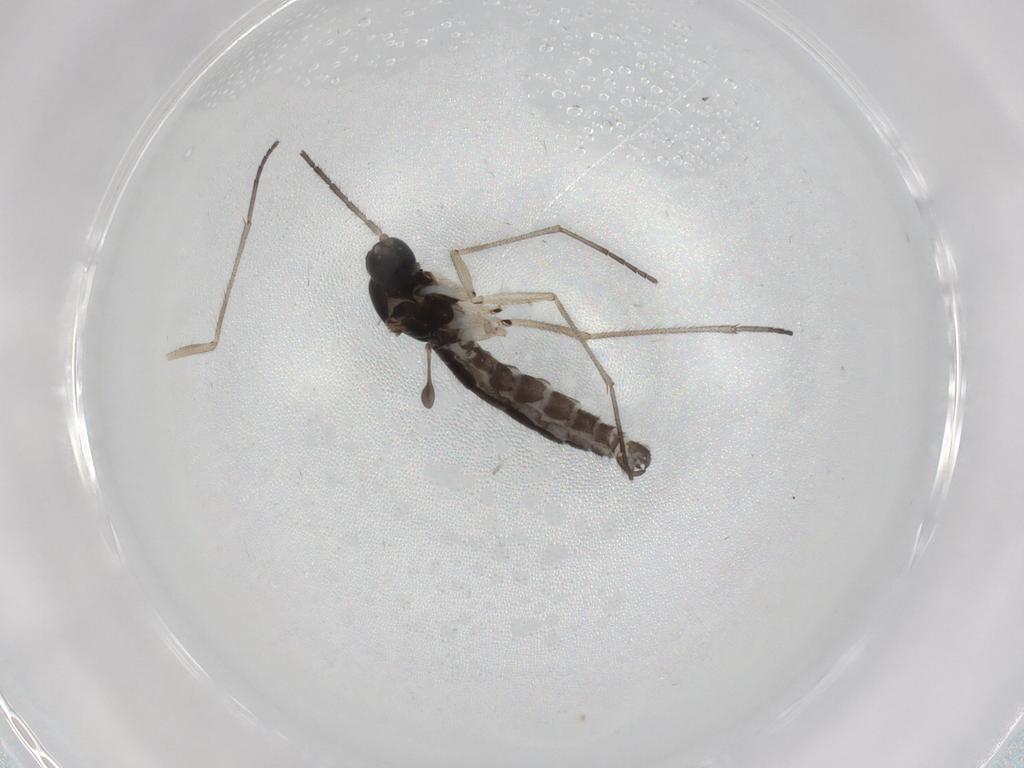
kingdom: Animalia
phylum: Arthropoda
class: Insecta
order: Diptera
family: Sciaridae
